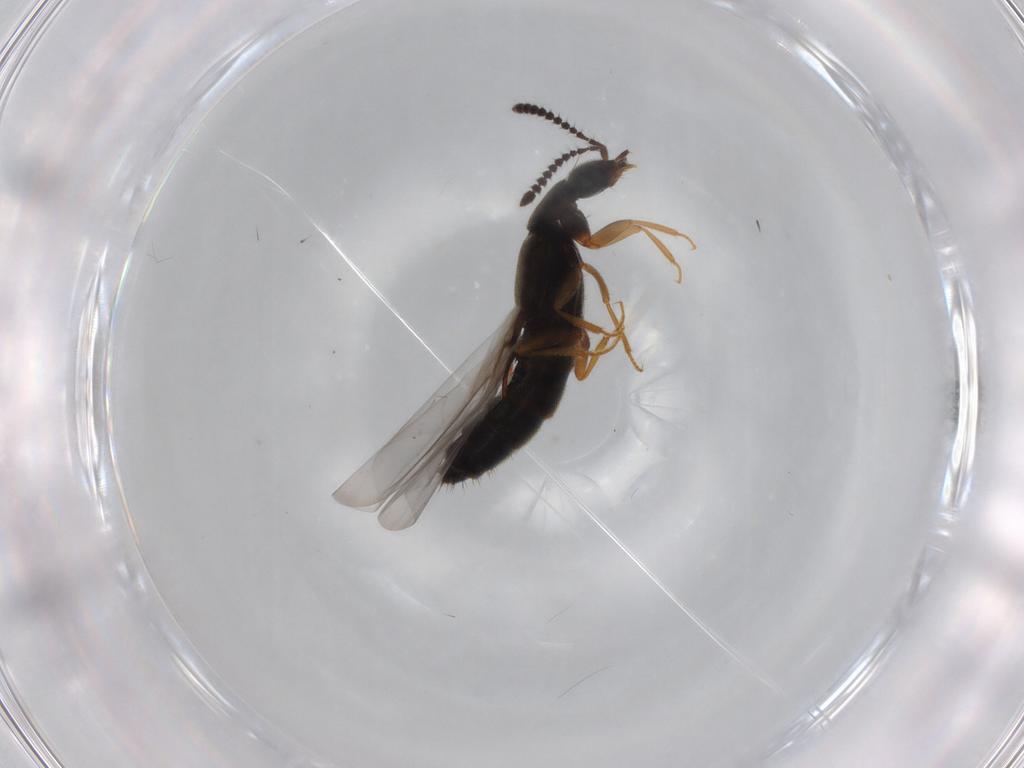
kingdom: Animalia
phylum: Arthropoda
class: Insecta
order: Coleoptera
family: Staphylinidae
